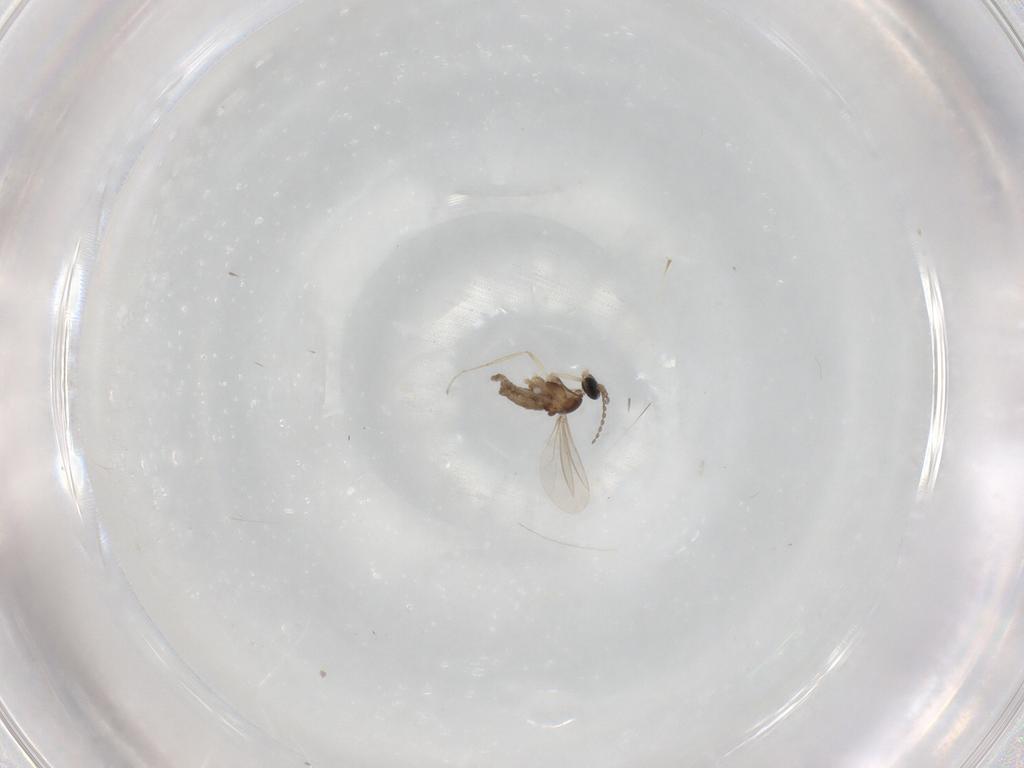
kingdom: Animalia
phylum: Arthropoda
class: Insecta
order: Diptera
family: Cecidomyiidae
